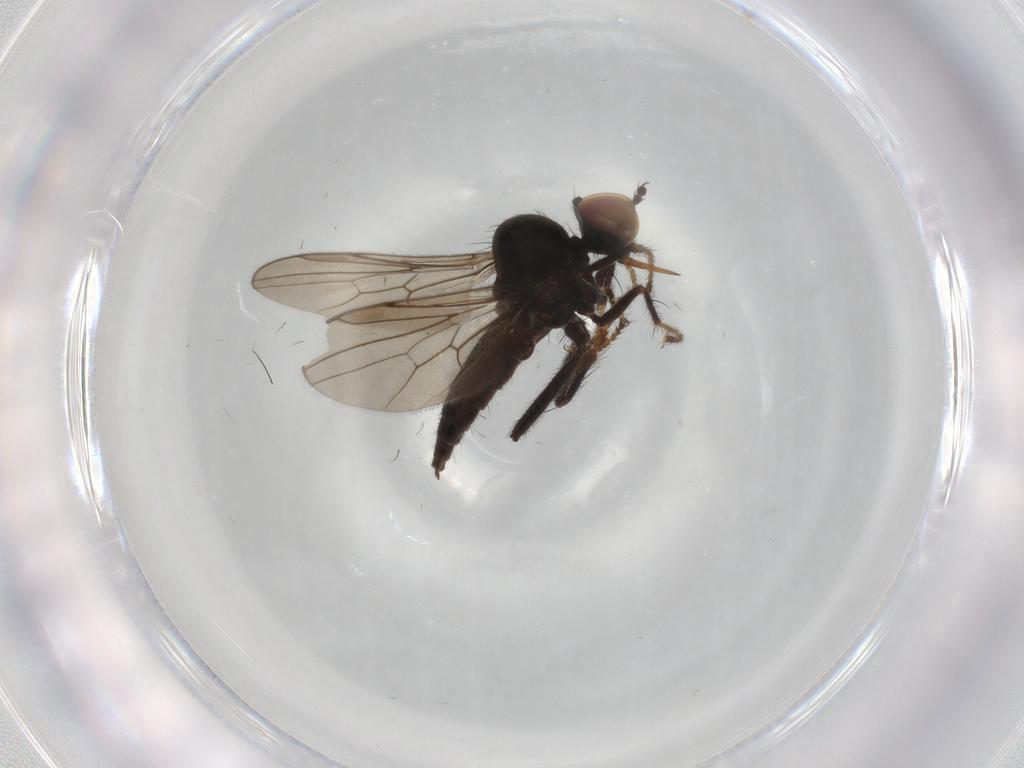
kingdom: Animalia
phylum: Arthropoda
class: Insecta
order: Diptera
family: Hybotidae
